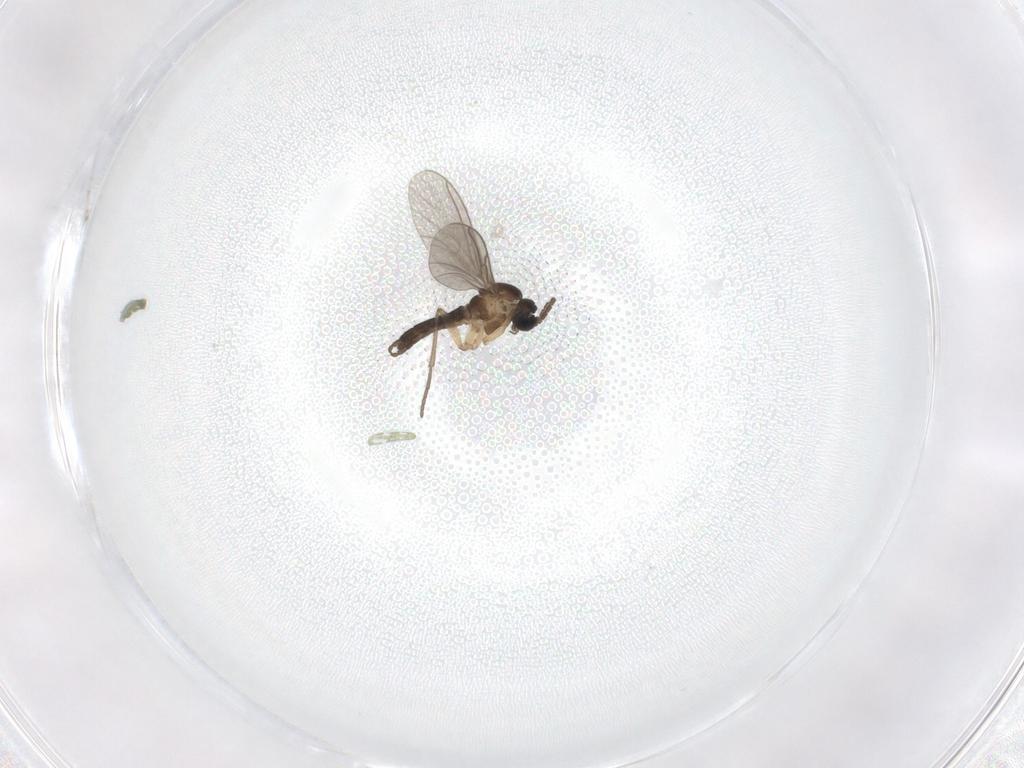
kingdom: Animalia
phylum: Arthropoda
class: Insecta
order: Diptera
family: Sciaridae
